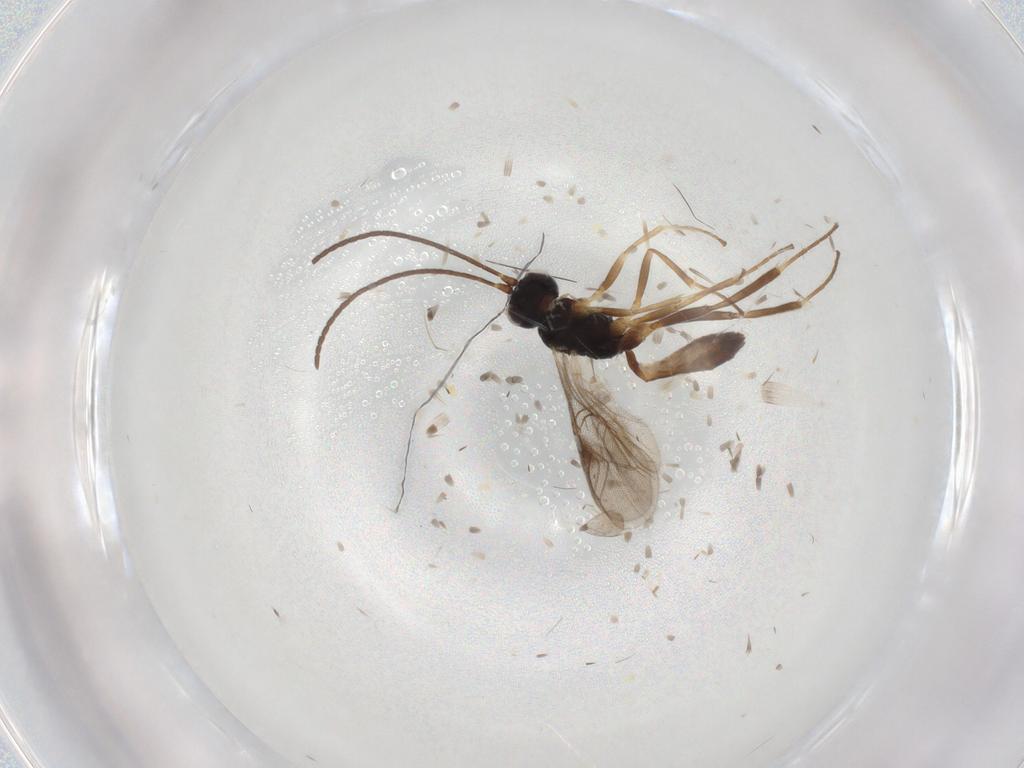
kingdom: Animalia
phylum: Arthropoda
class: Insecta
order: Hymenoptera
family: Ichneumonidae
